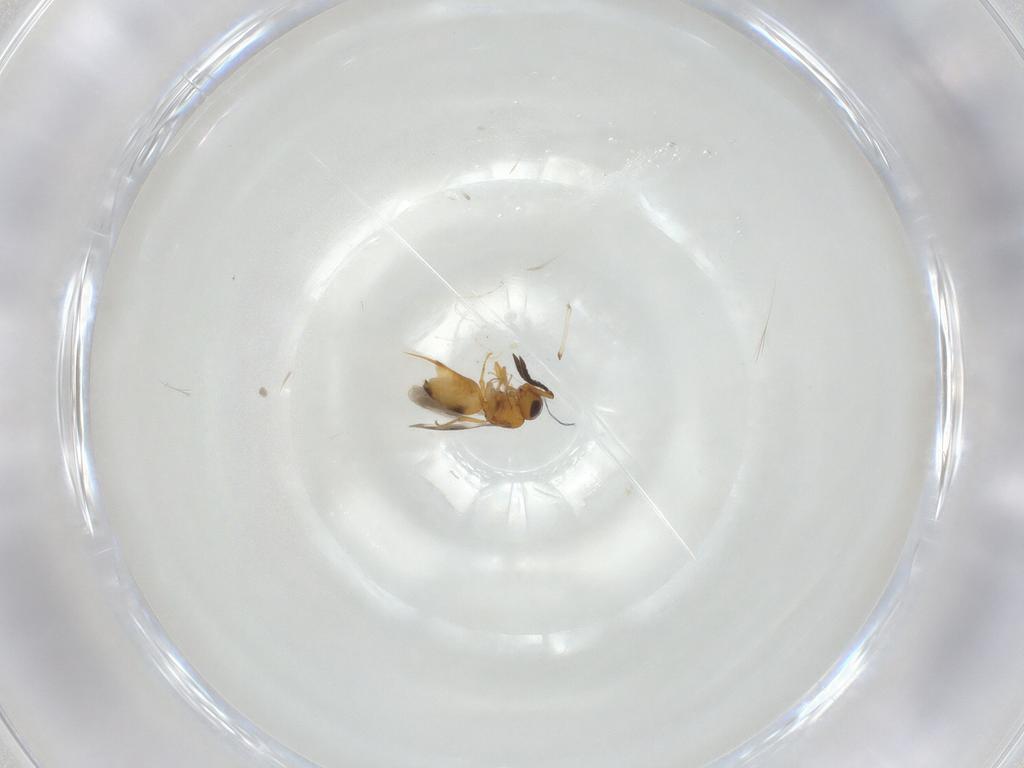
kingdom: Animalia
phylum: Arthropoda
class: Insecta
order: Hymenoptera
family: Ceraphronidae
